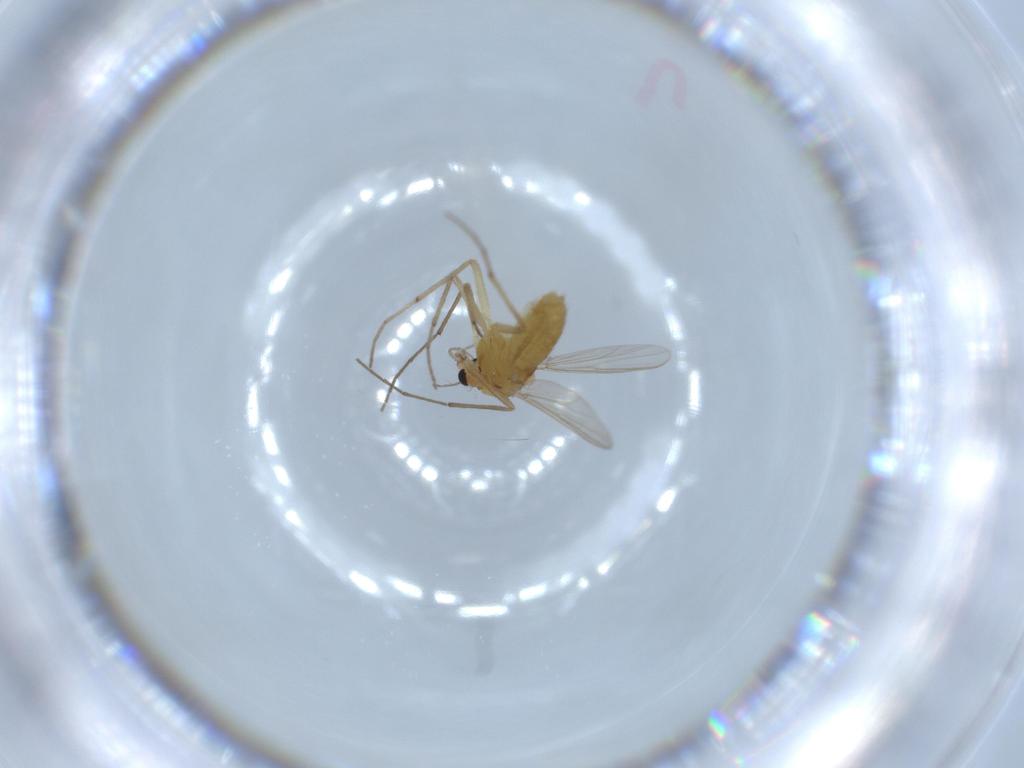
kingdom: Animalia
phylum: Arthropoda
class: Insecta
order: Diptera
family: Chironomidae
